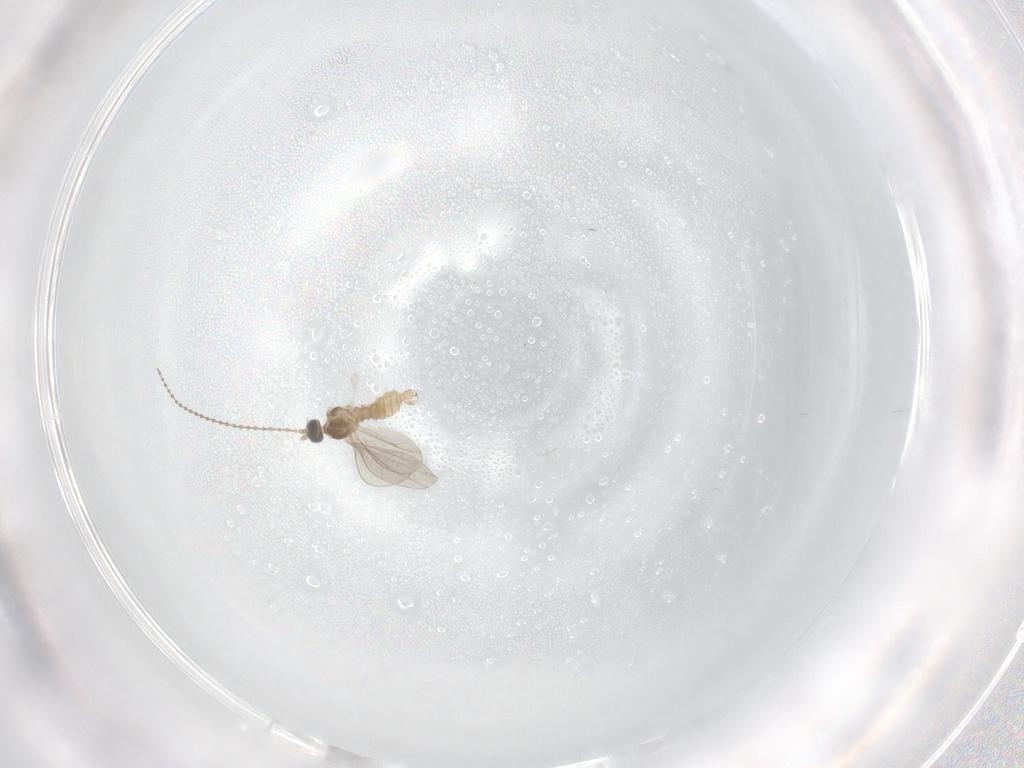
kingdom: Animalia
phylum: Arthropoda
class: Insecta
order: Diptera
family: Cecidomyiidae
